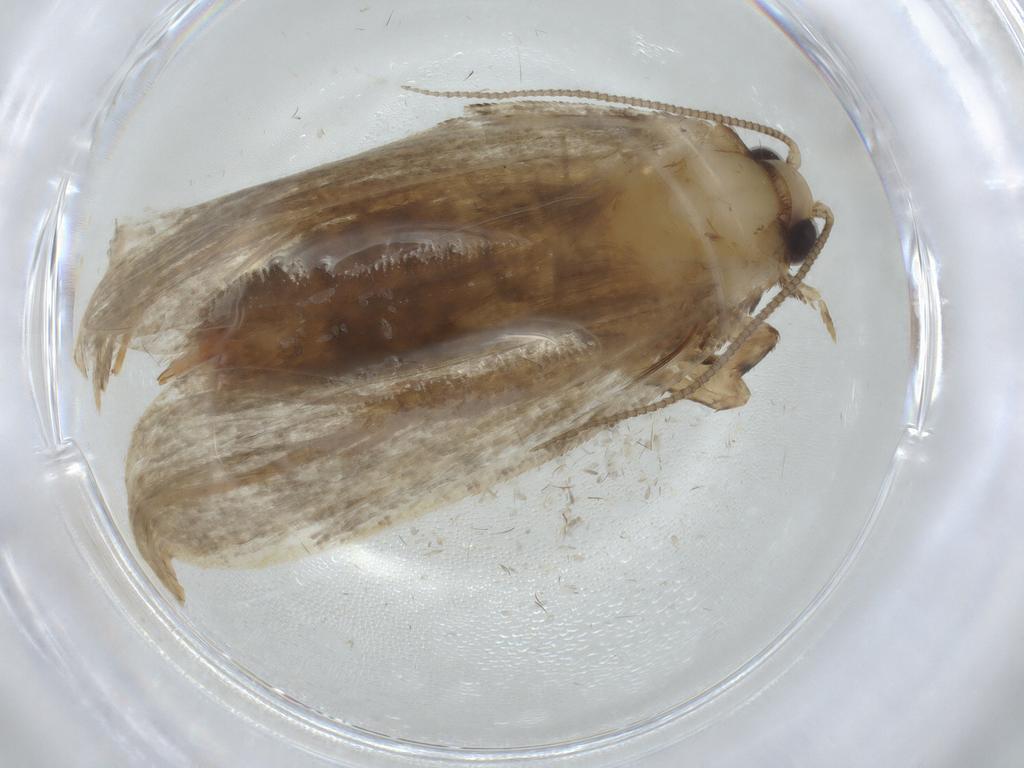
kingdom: Animalia
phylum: Arthropoda
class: Insecta
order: Lepidoptera
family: Tineidae
